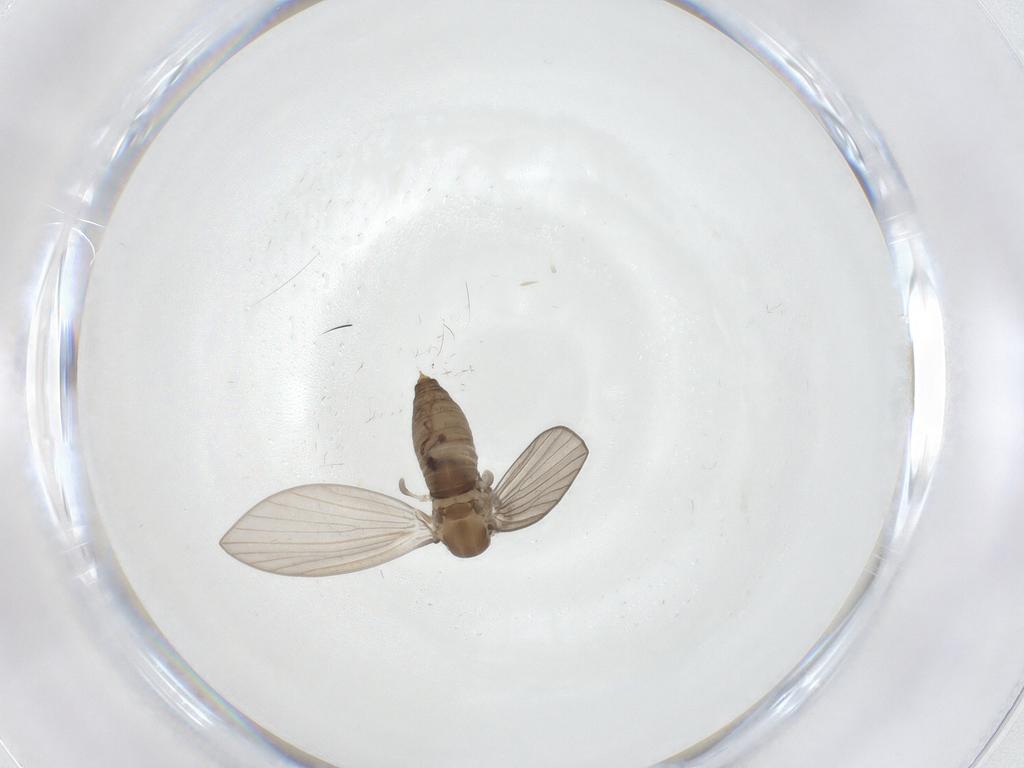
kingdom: Animalia
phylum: Arthropoda
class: Insecta
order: Diptera
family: Psychodidae
